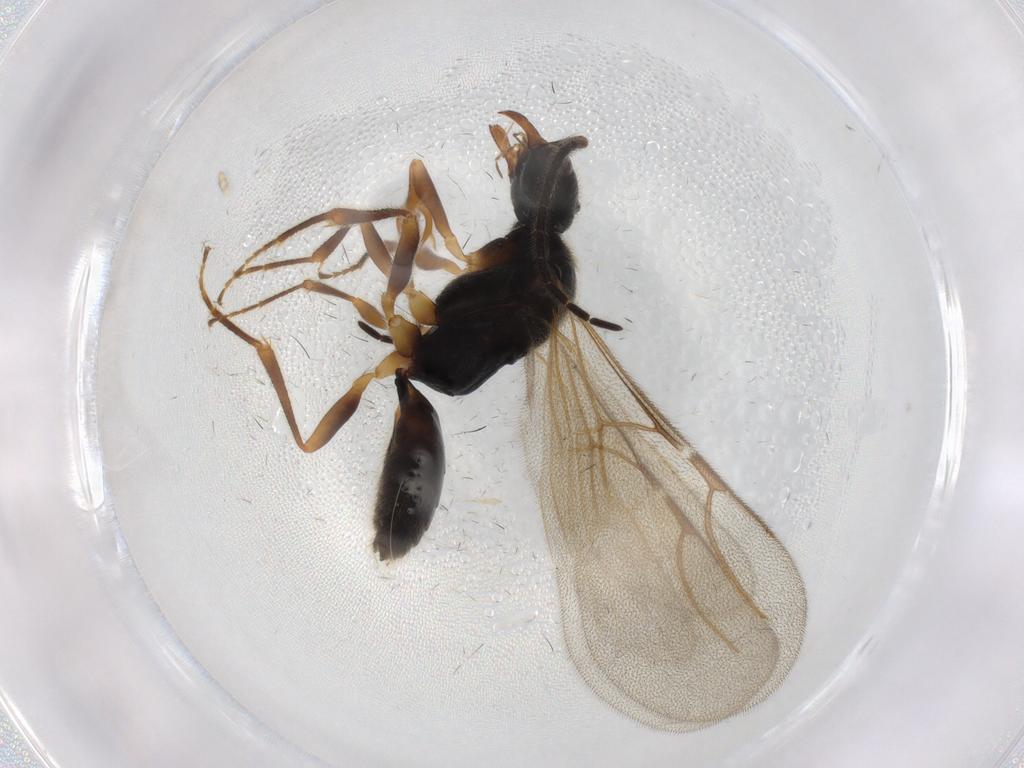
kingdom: Animalia
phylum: Arthropoda
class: Insecta
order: Hymenoptera
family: Bethylidae
